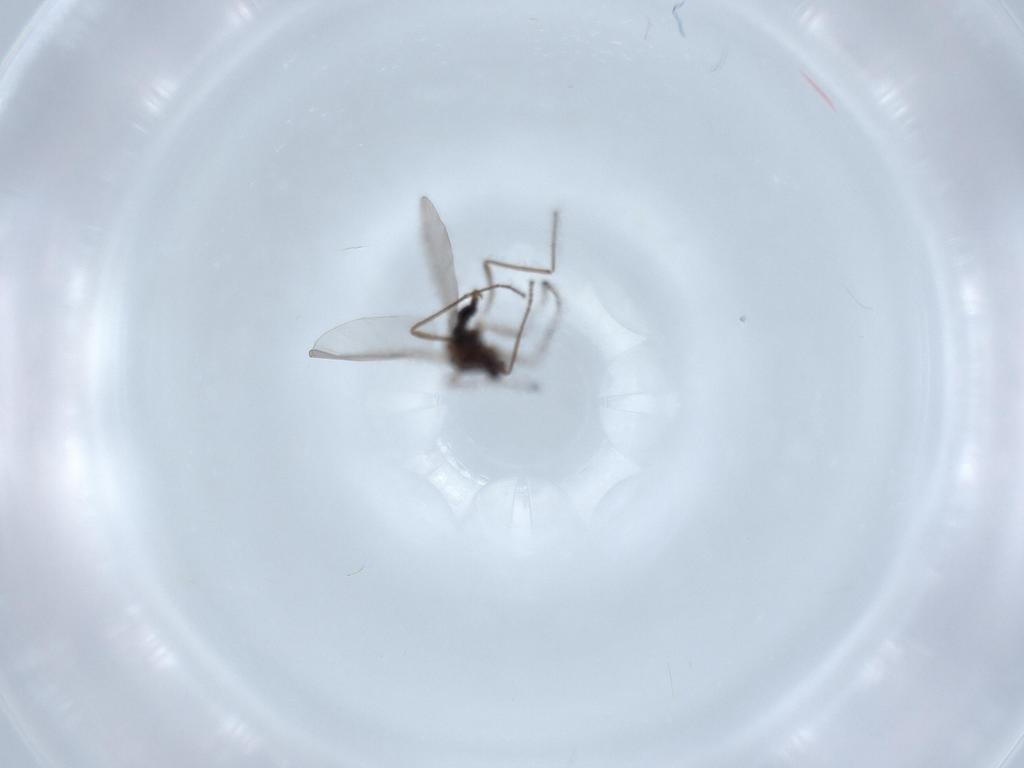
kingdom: Animalia
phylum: Arthropoda
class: Insecta
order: Diptera
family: Cecidomyiidae
